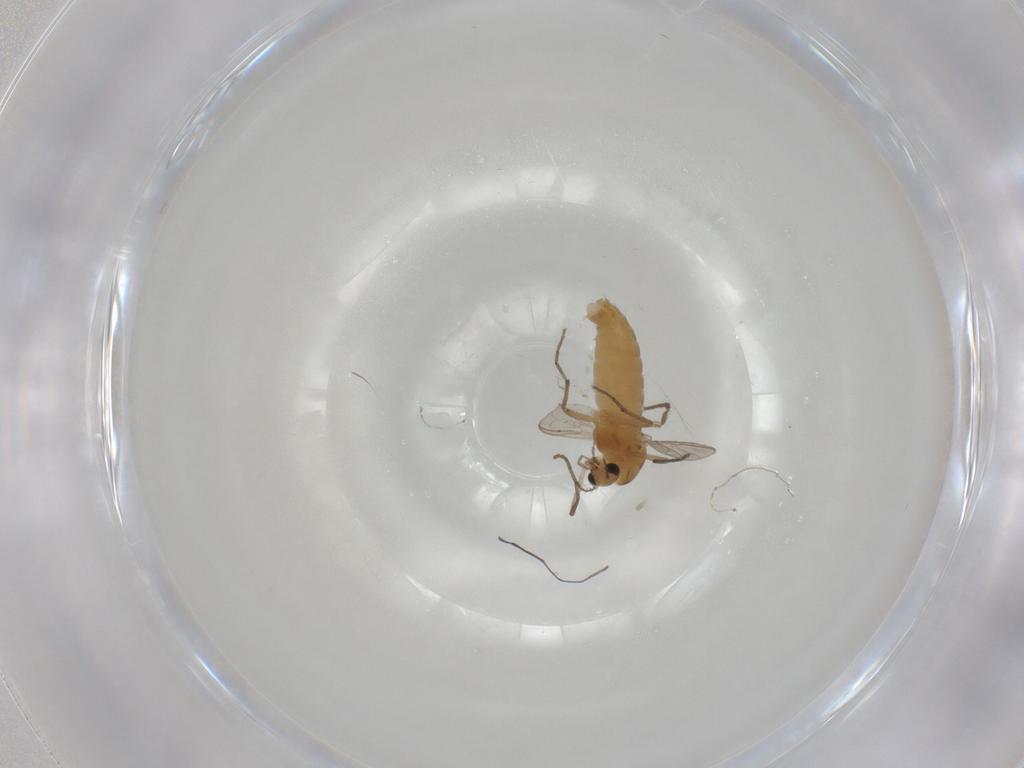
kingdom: Animalia
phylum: Arthropoda
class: Insecta
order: Diptera
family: Chironomidae
